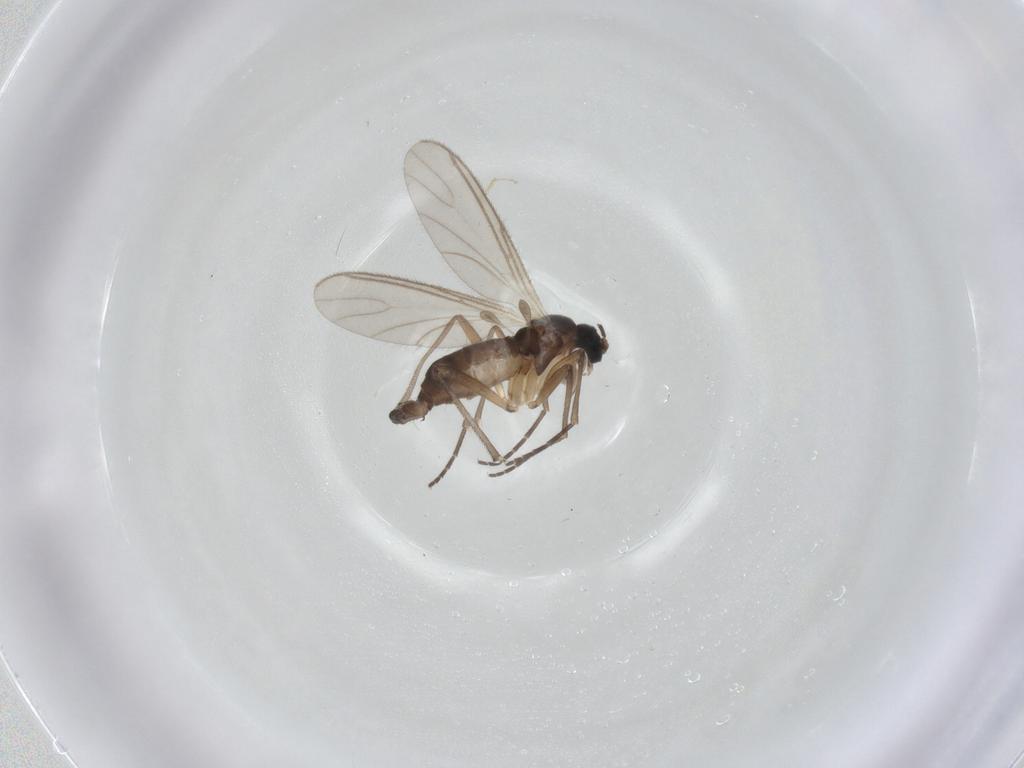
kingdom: Animalia
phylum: Arthropoda
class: Insecta
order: Diptera
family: Sciaridae
